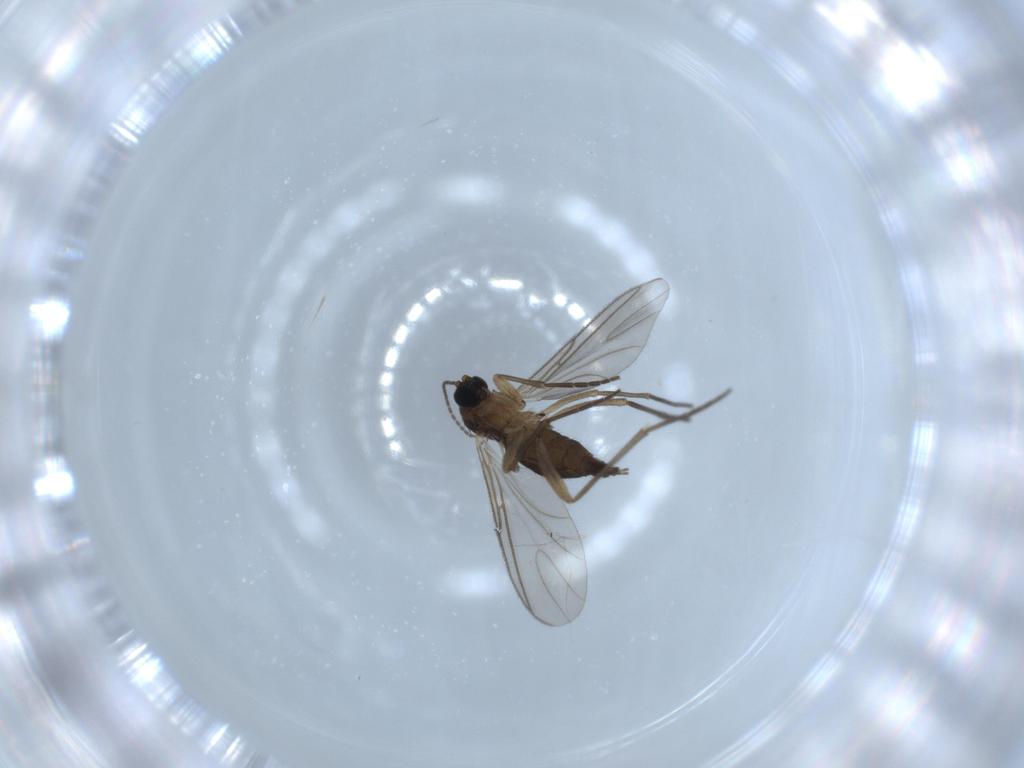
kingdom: Animalia
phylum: Arthropoda
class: Insecta
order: Diptera
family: Sciaridae
